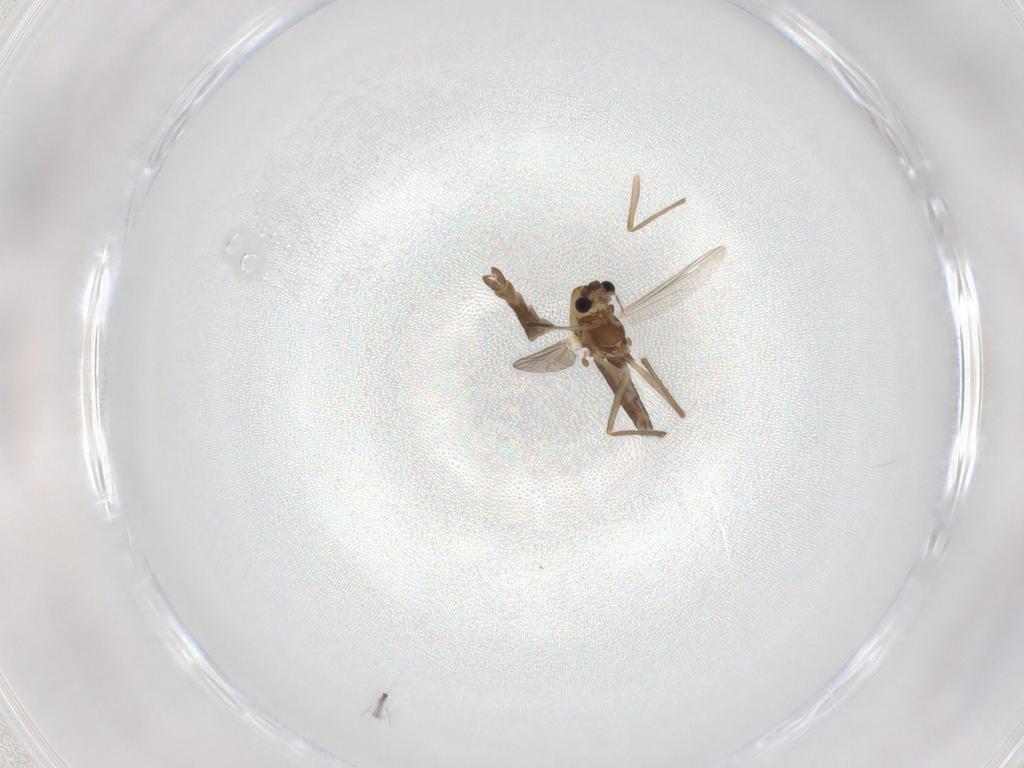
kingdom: Animalia
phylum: Arthropoda
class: Insecta
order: Diptera
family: Chironomidae
